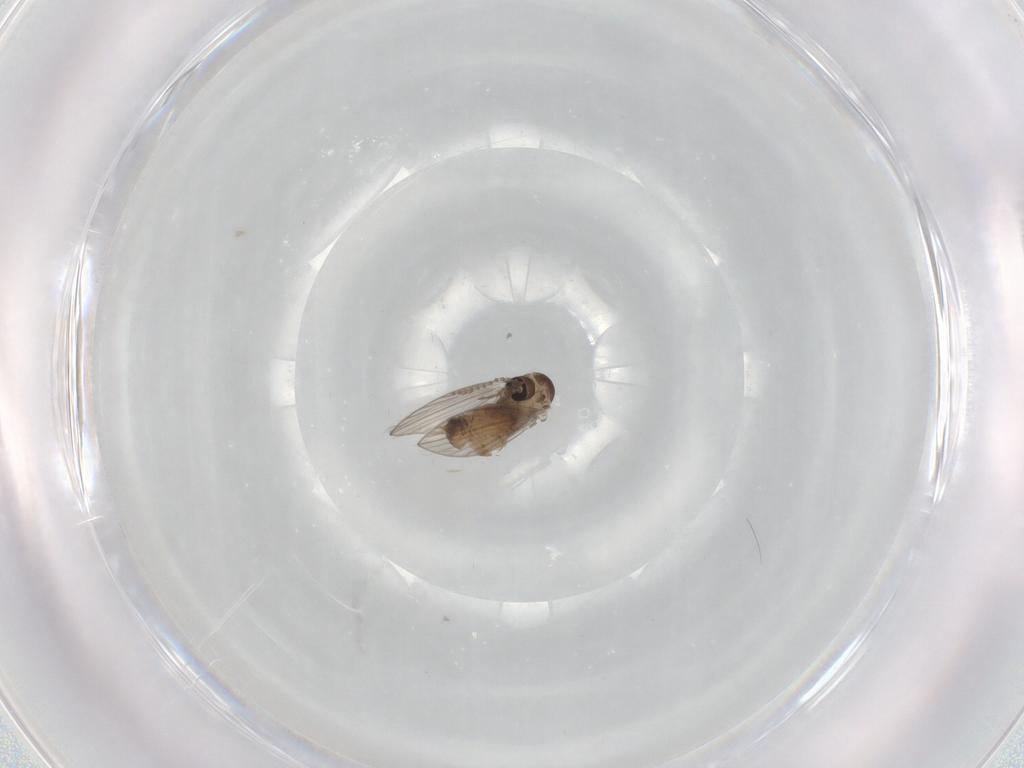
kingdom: Animalia
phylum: Arthropoda
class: Insecta
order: Diptera
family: Psychodidae
